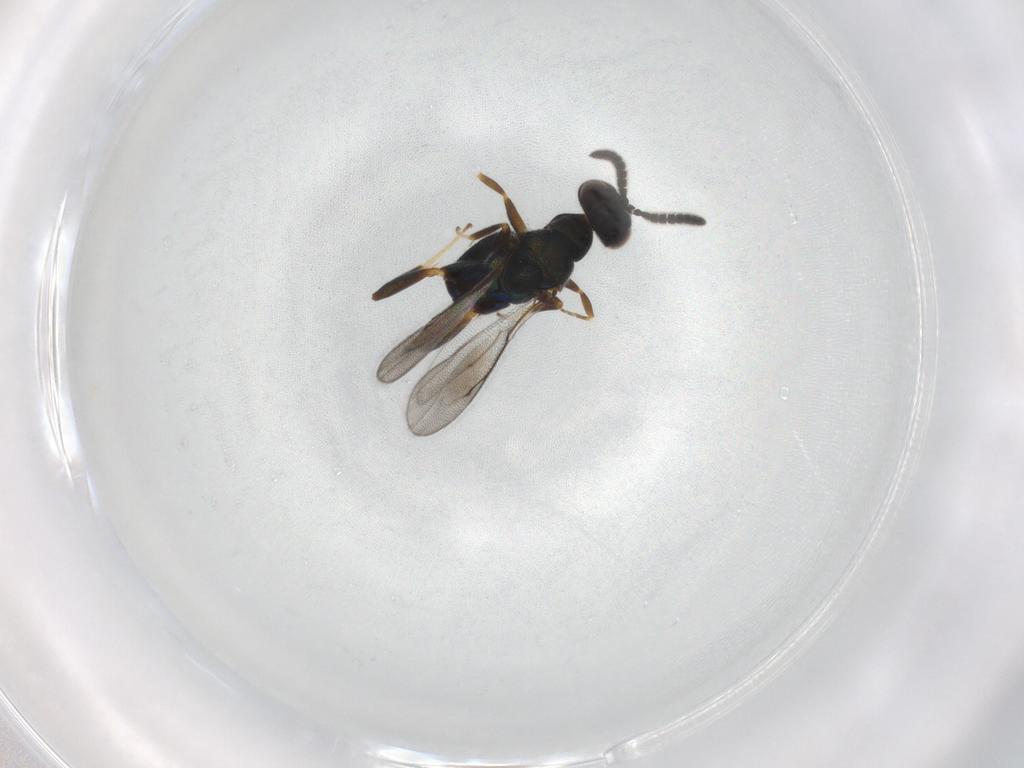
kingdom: Animalia
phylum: Arthropoda
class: Insecta
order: Hymenoptera
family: Cleonyminae
